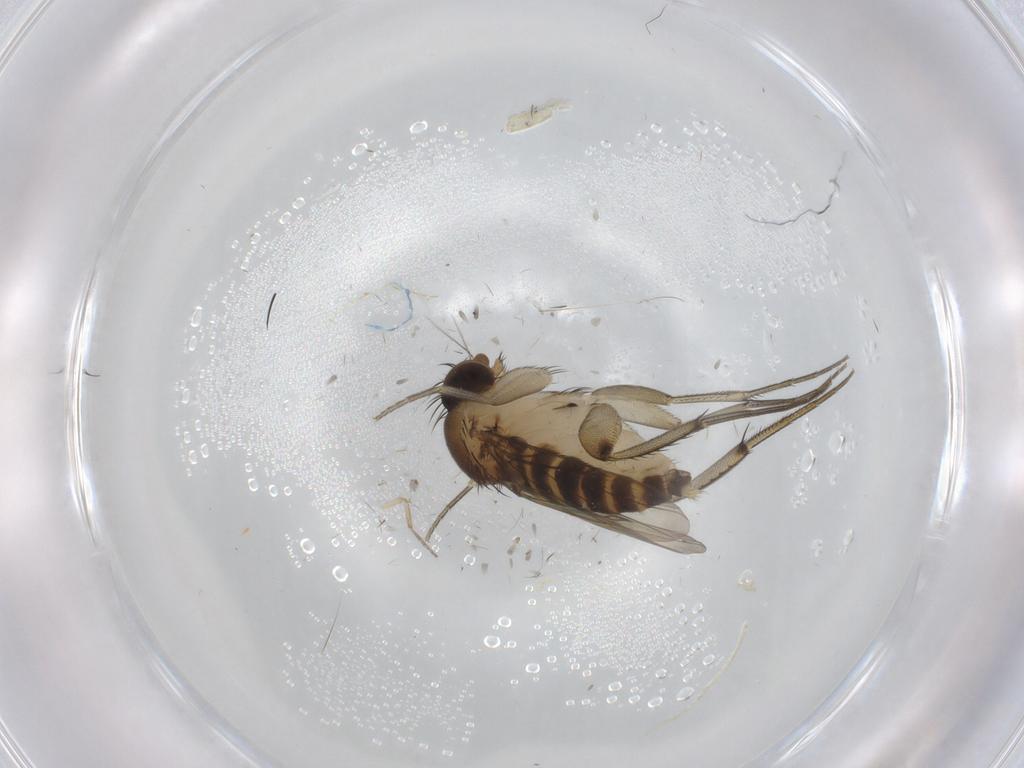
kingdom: Animalia
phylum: Arthropoda
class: Insecta
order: Diptera
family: Phoridae
